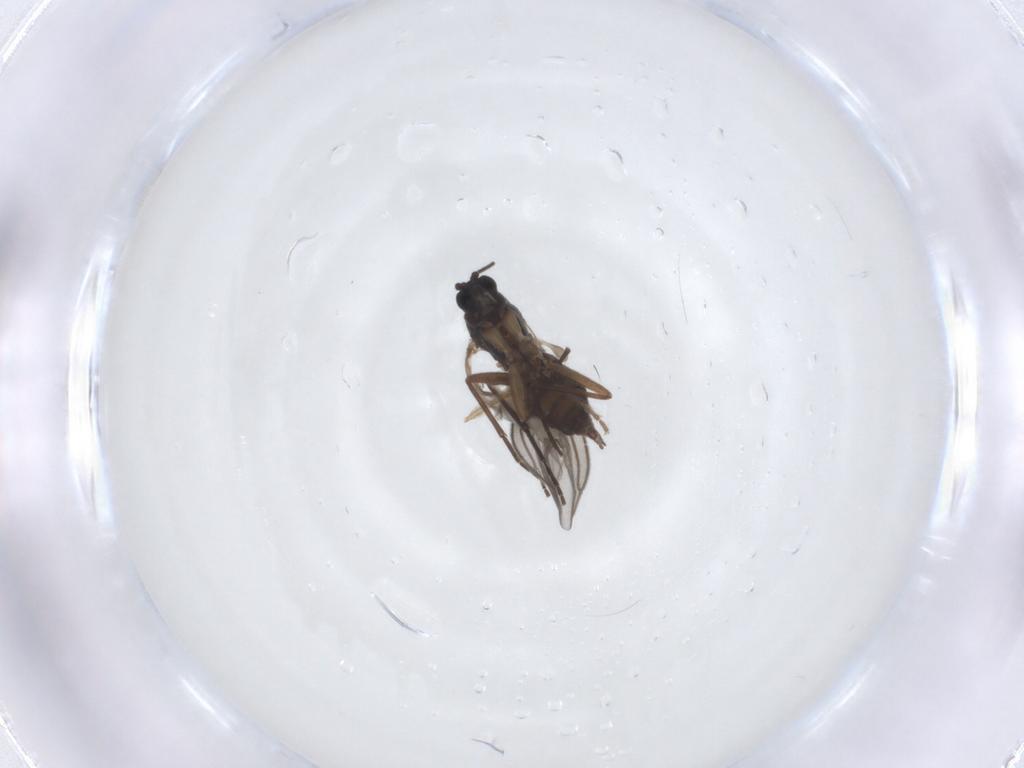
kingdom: Animalia
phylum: Arthropoda
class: Insecta
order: Diptera
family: Sciaridae
